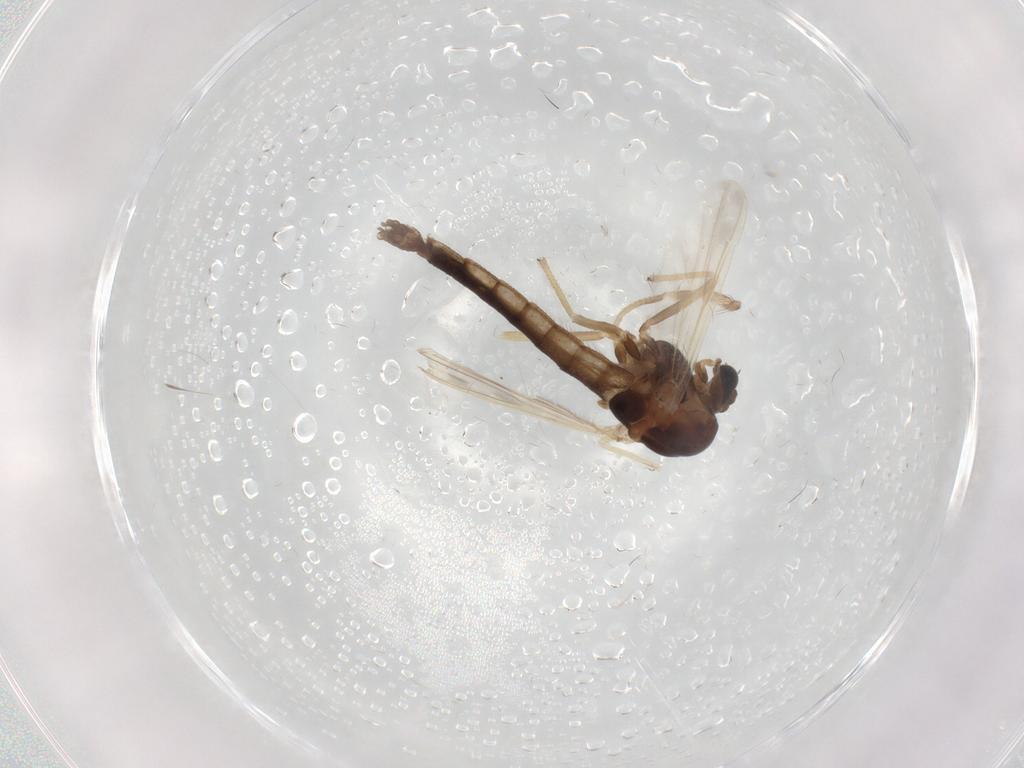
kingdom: Animalia
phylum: Arthropoda
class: Insecta
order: Diptera
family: Chironomidae
